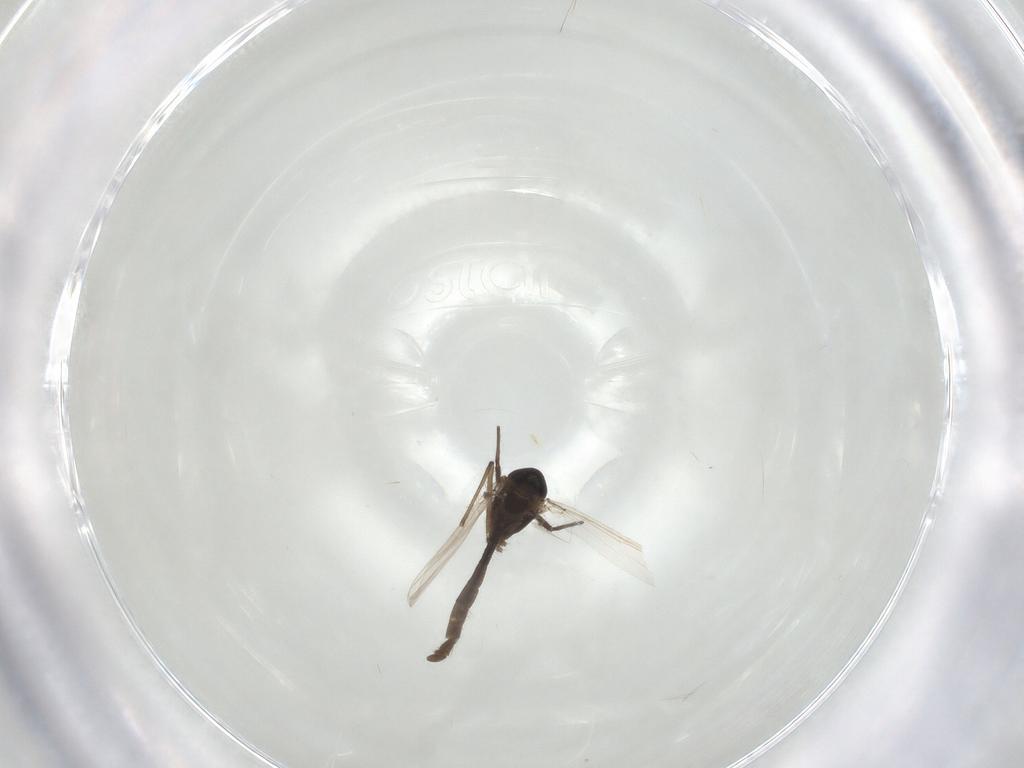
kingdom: Animalia
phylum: Arthropoda
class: Insecta
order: Diptera
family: Chironomidae
